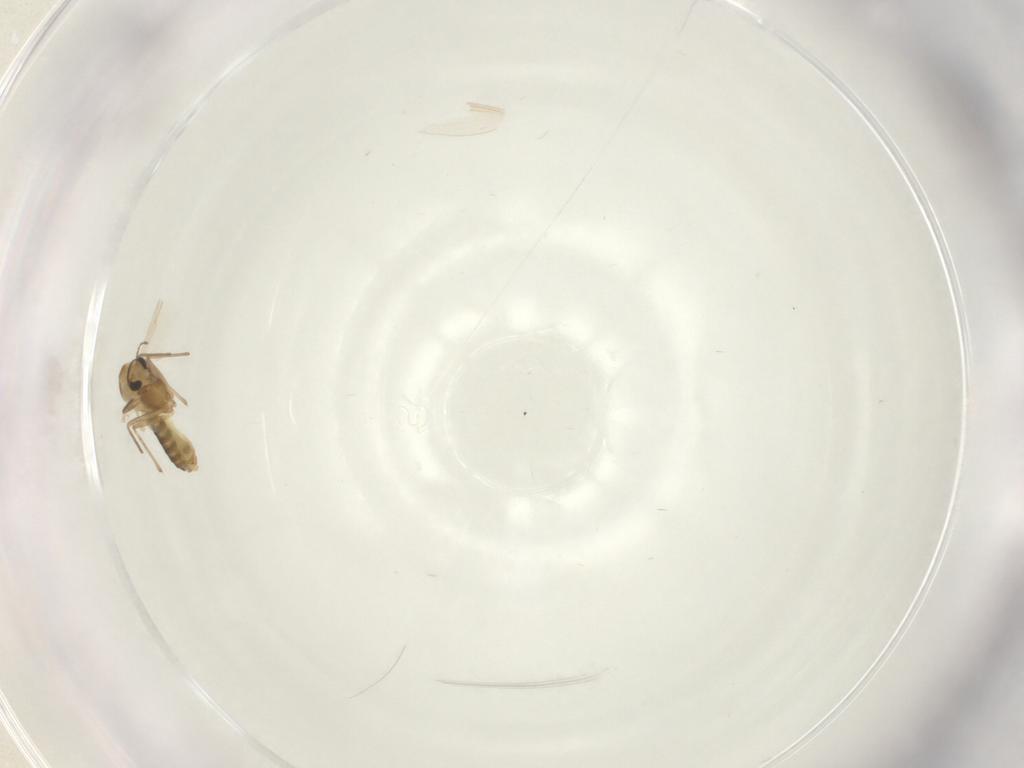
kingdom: Animalia
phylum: Arthropoda
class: Insecta
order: Diptera
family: Chironomidae
